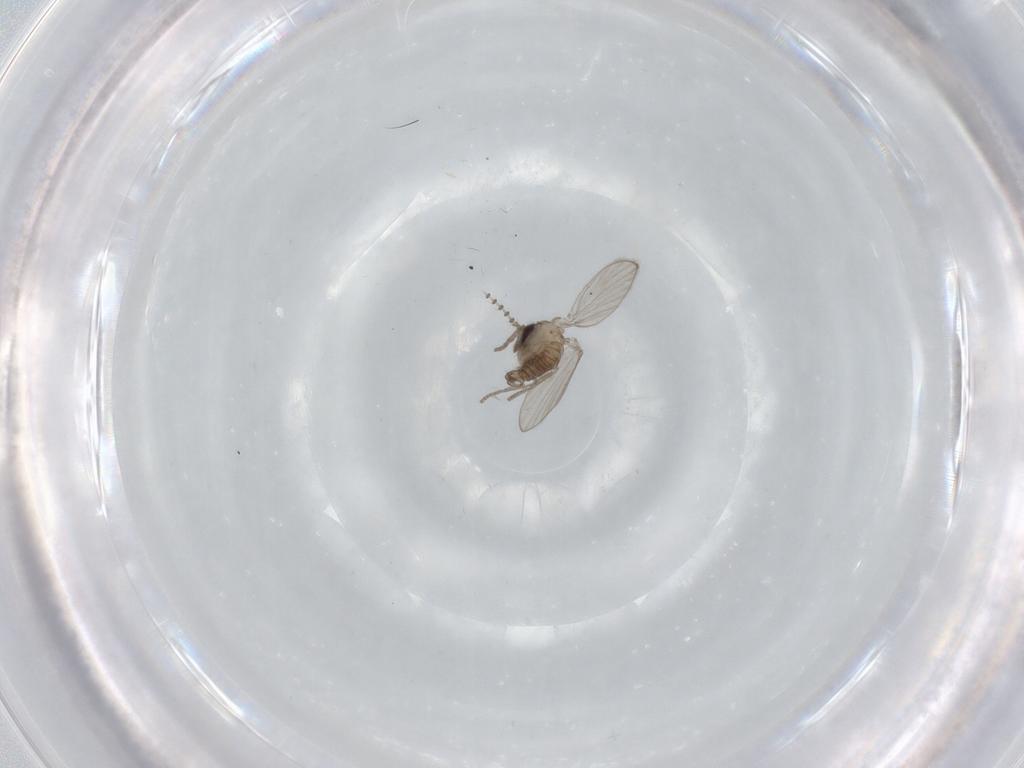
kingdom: Animalia
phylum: Arthropoda
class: Insecta
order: Diptera
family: Psychodidae
